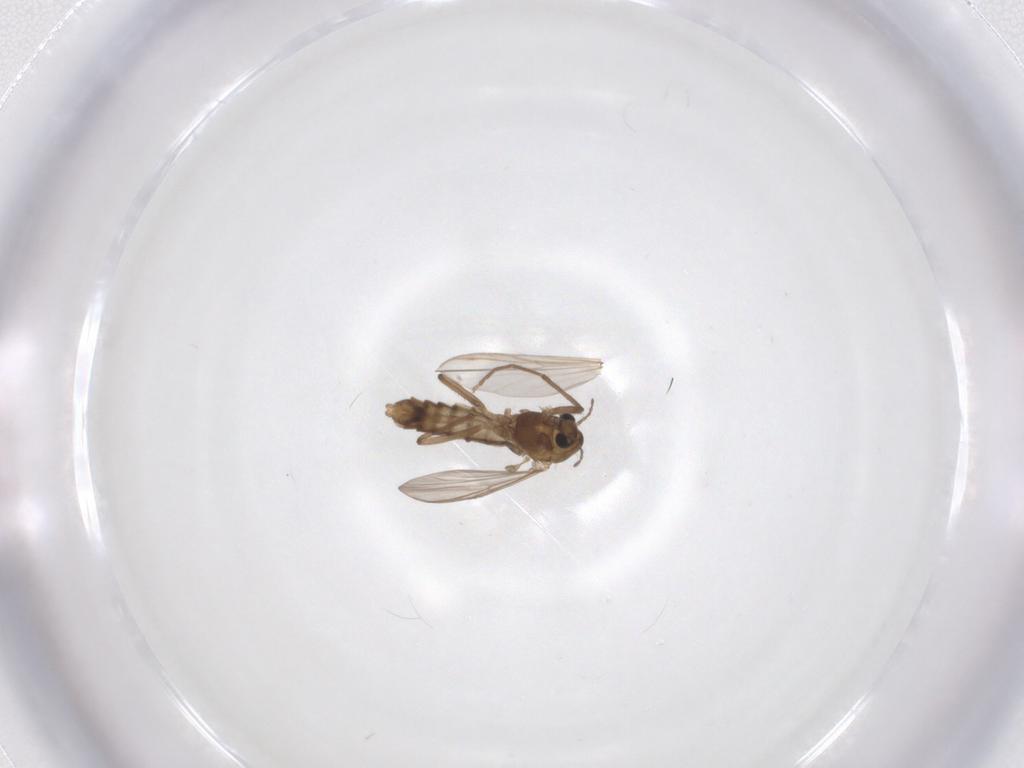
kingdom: Animalia
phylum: Arthropoda
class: Insecta
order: Diptera
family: Chironomidae
